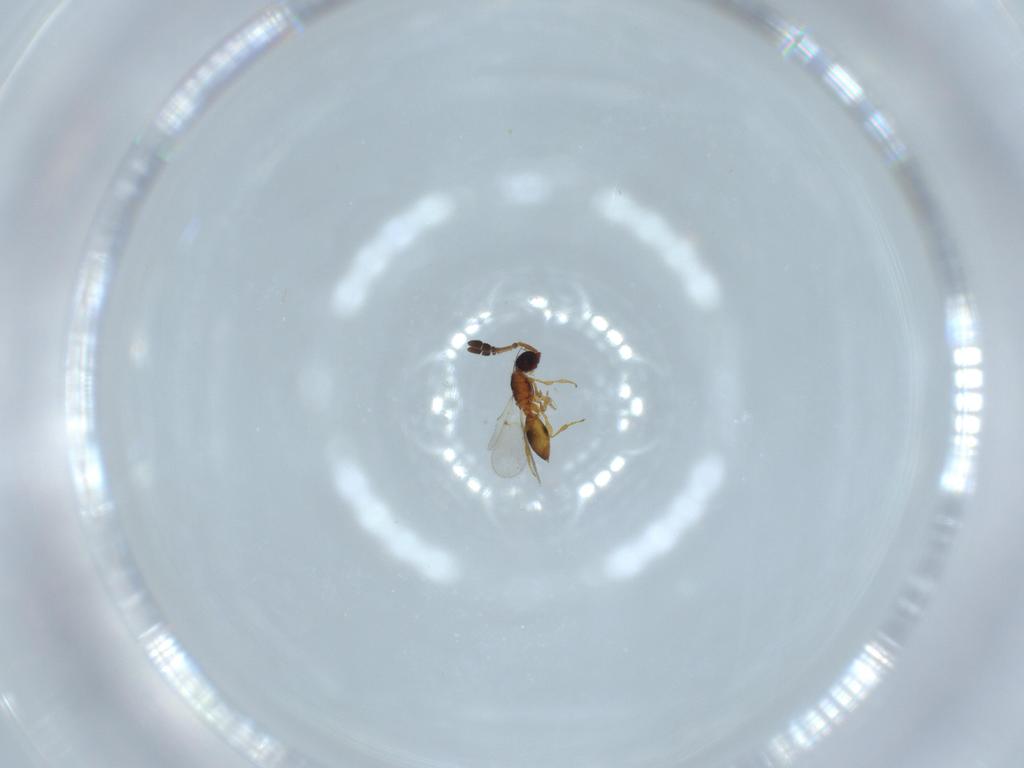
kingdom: Animalia
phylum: Arthropoda
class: Insecta
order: Hymenoptera
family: Diapriidae
